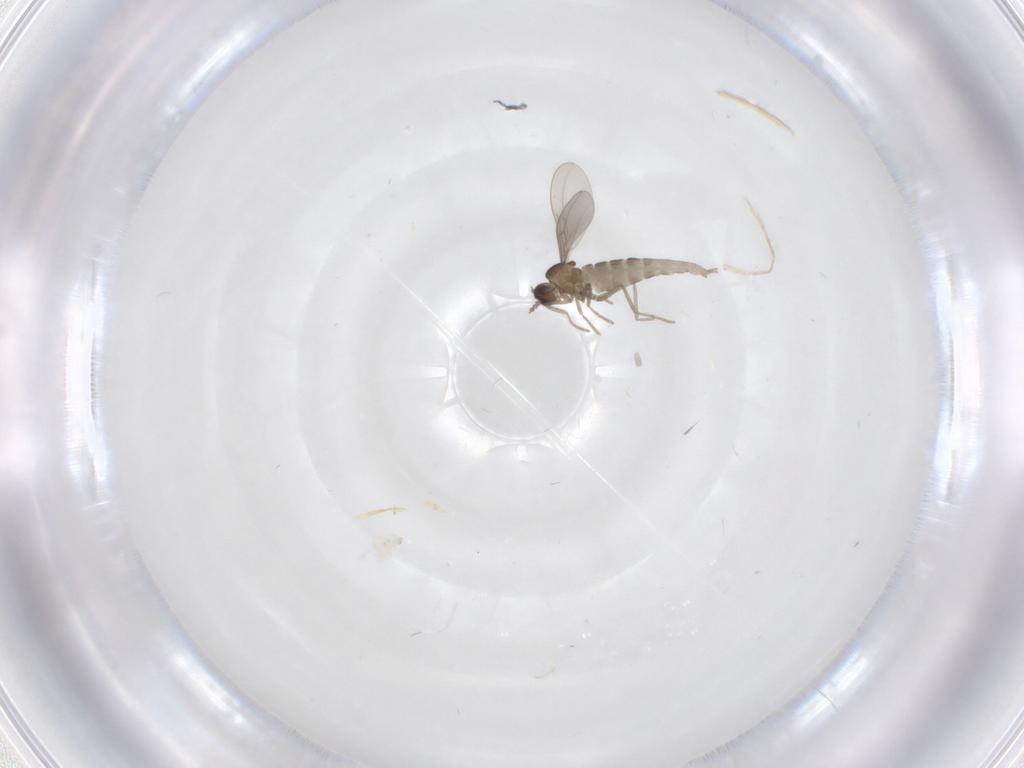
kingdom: Animalia
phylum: Arthropoda
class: Insecta
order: Diptera
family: Cecidomyiidae
